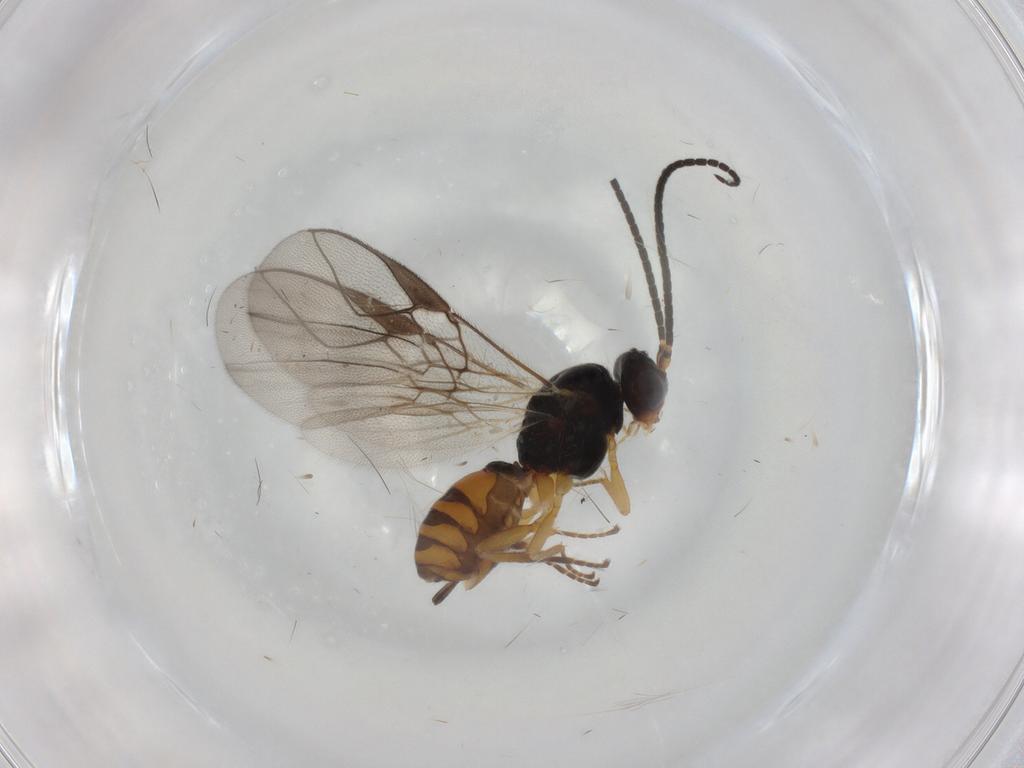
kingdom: Animalia
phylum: Arthropoda
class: Insecta
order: Hymenoptera
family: Braconidae
